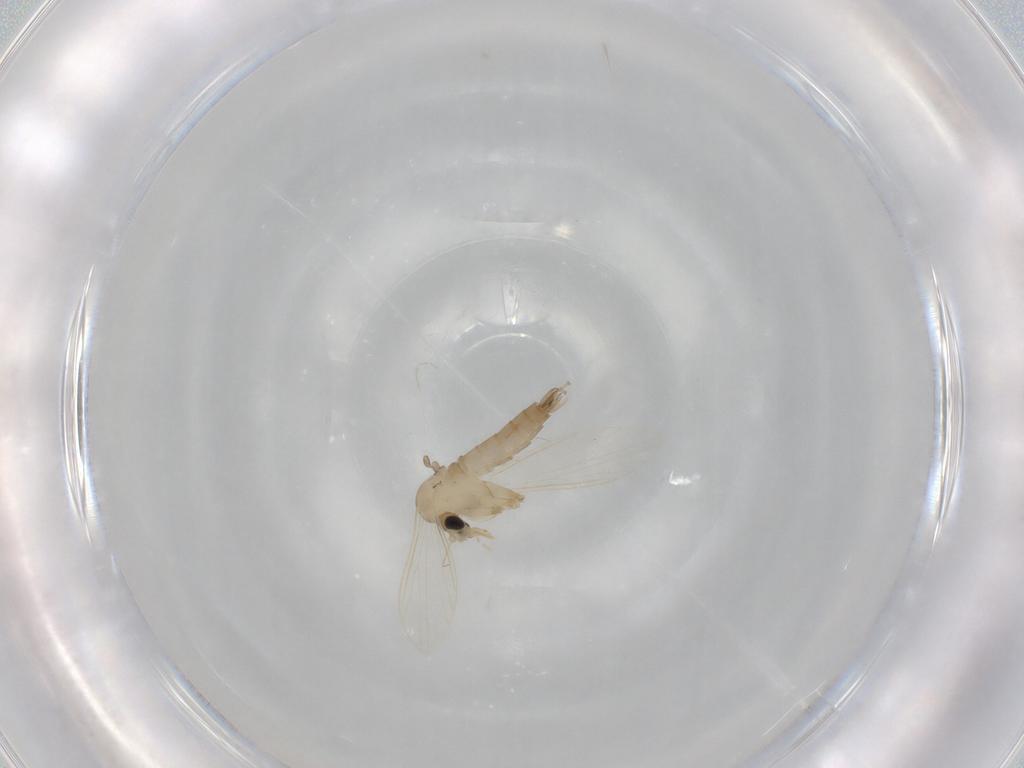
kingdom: Animalia
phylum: Arthropoda
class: Insecta
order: Diptera
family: Psychodidae
